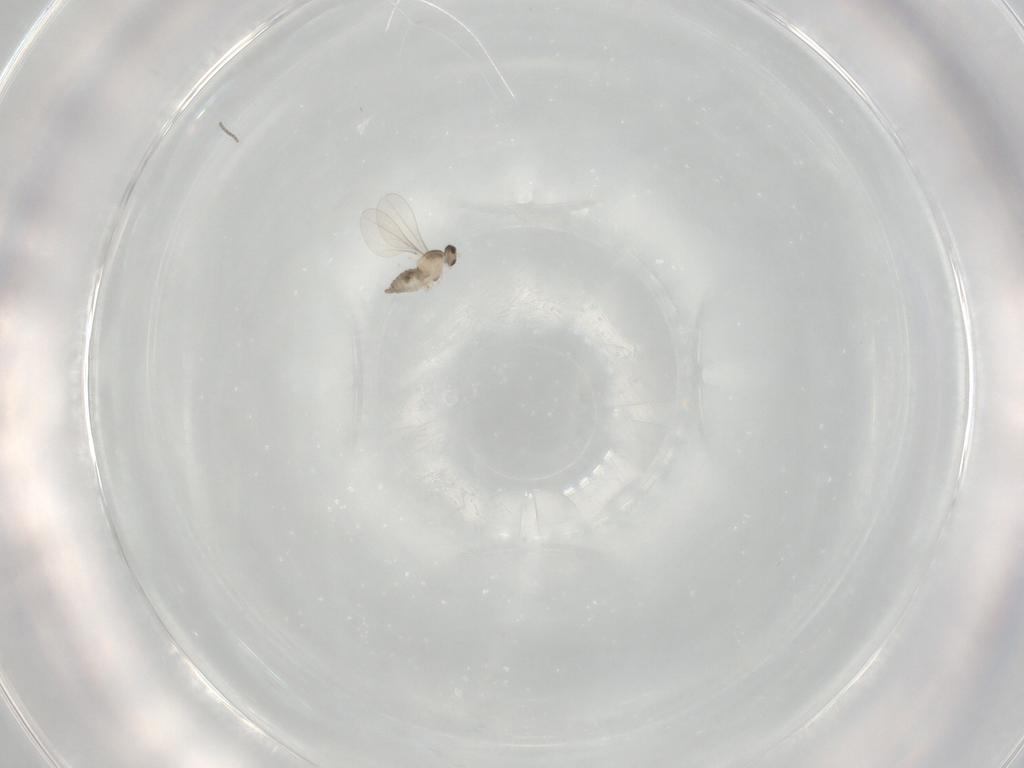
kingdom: Animalia
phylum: Arthropoda
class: Insecta
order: Diptera
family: Cecidomyiidae
